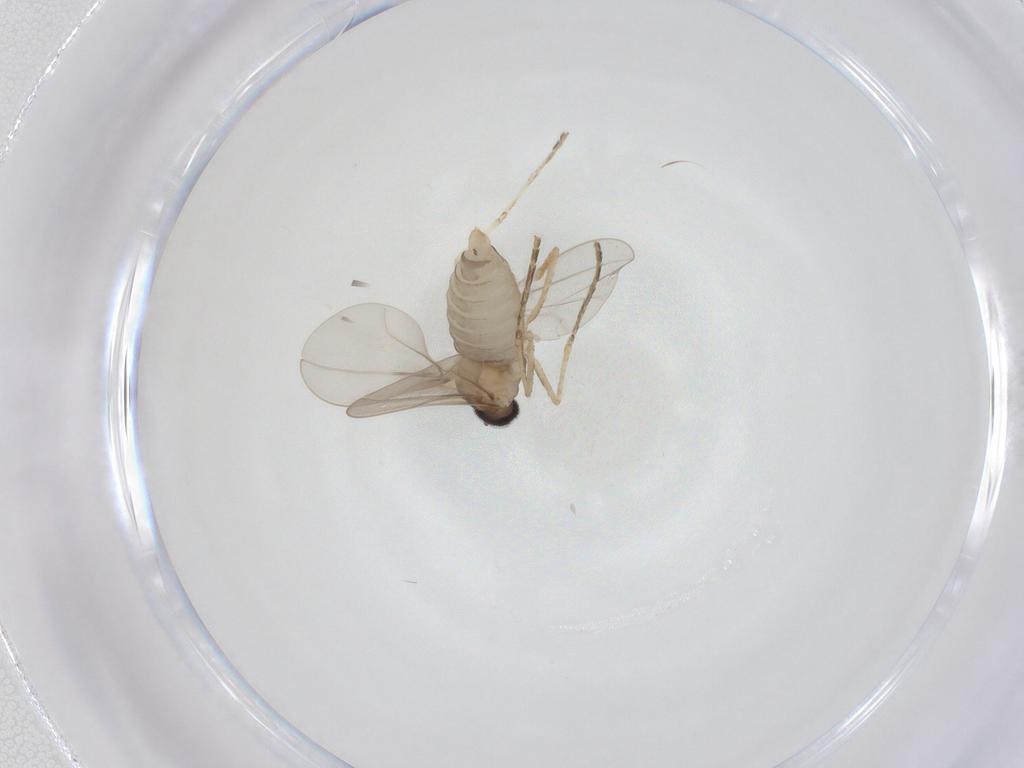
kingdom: Animalia
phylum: Arthropoda
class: Insecta
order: Diptera
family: Cecidomyiidae
